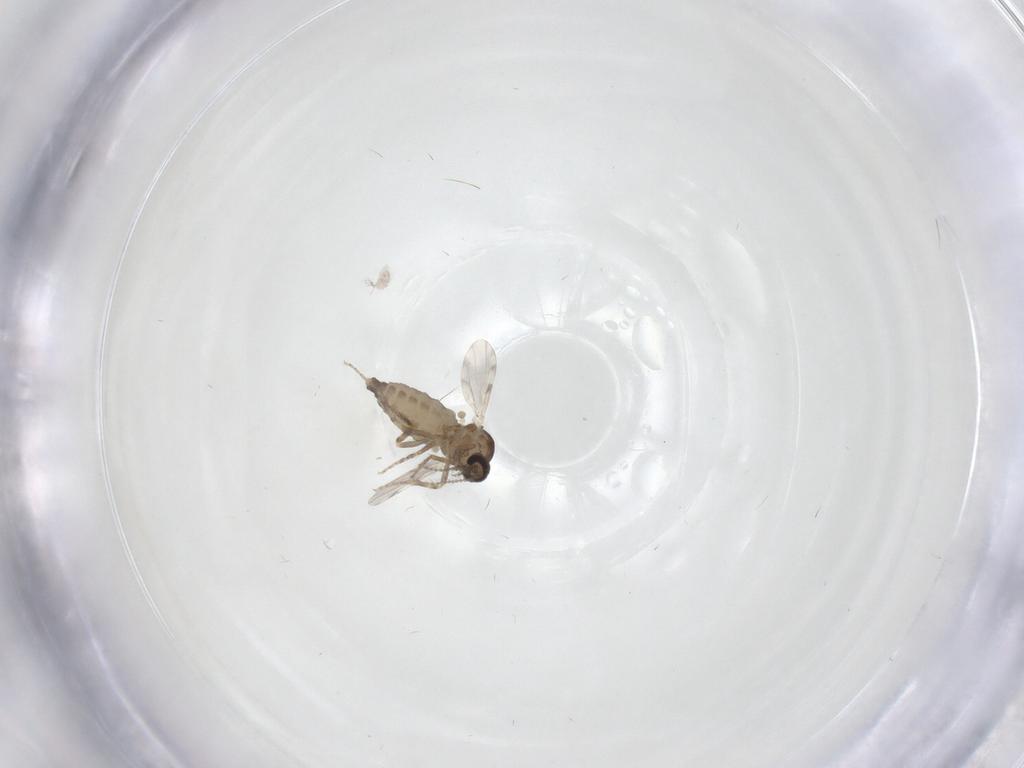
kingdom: Animalia
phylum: Arthropoda
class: Insecta
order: Diptera
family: Ceratopogonidae
